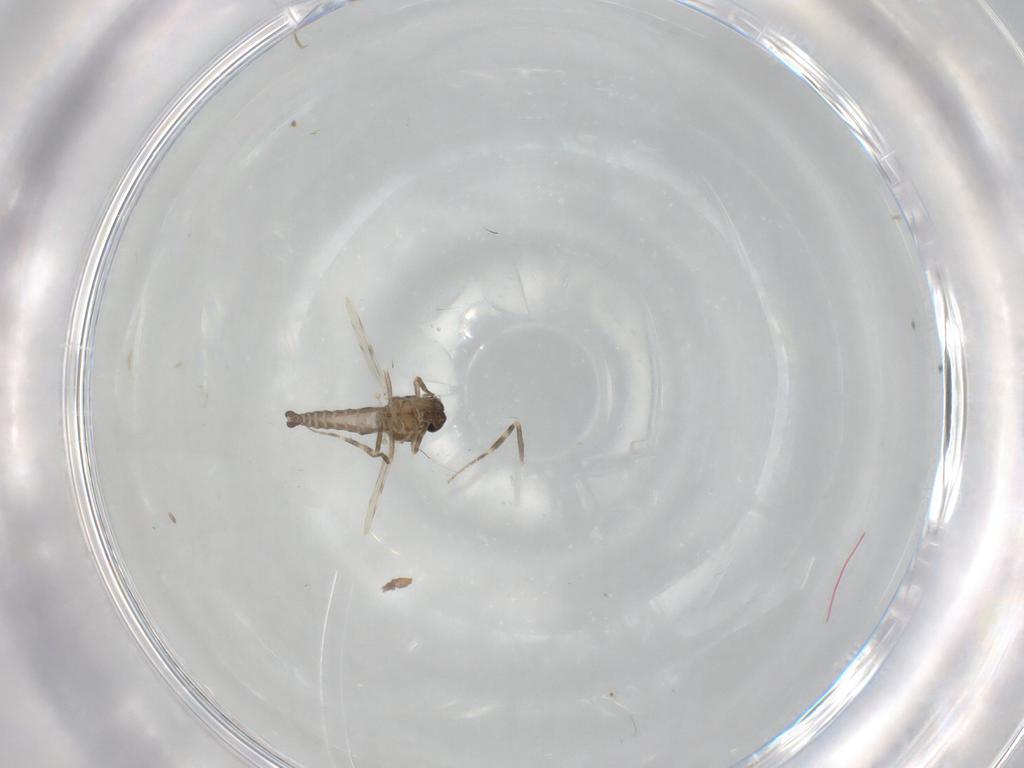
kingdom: Animalia
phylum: Arthropoda
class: Insecta
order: Diptera
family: Ceratopogonidae
